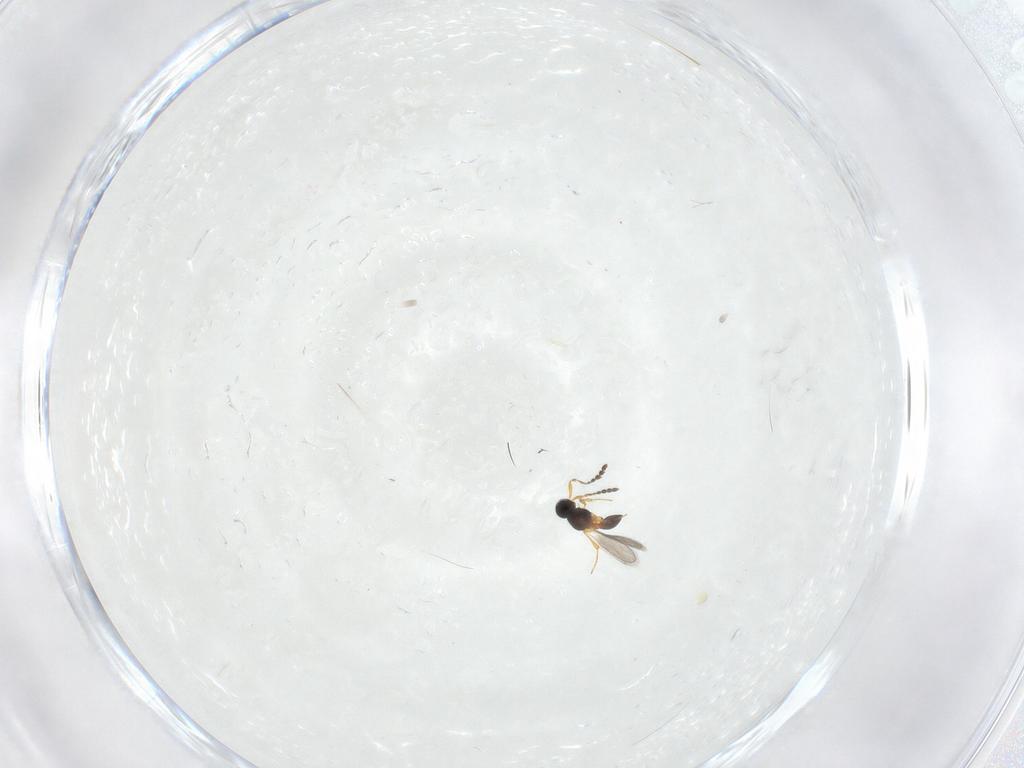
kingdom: Animalia
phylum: Arthropoda
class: Insecta
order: Hymenoptera
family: Platygastridae
